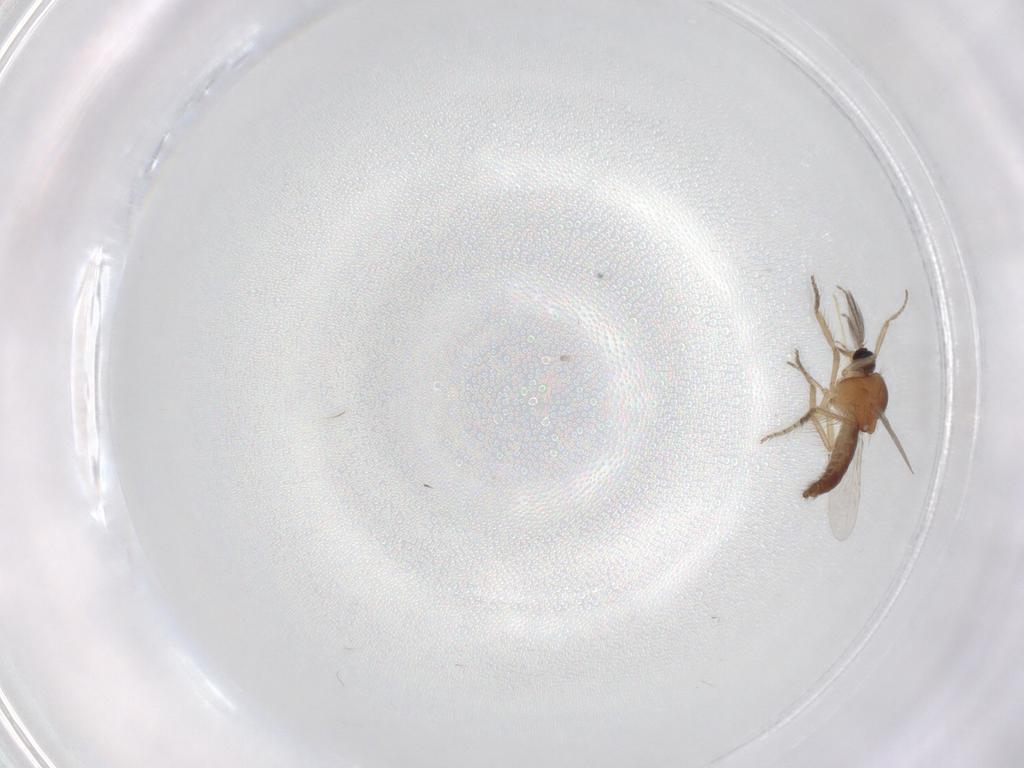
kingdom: Animalia
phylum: Arthropoda
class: Insecta
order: Diptera
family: Ceratopogonidae
